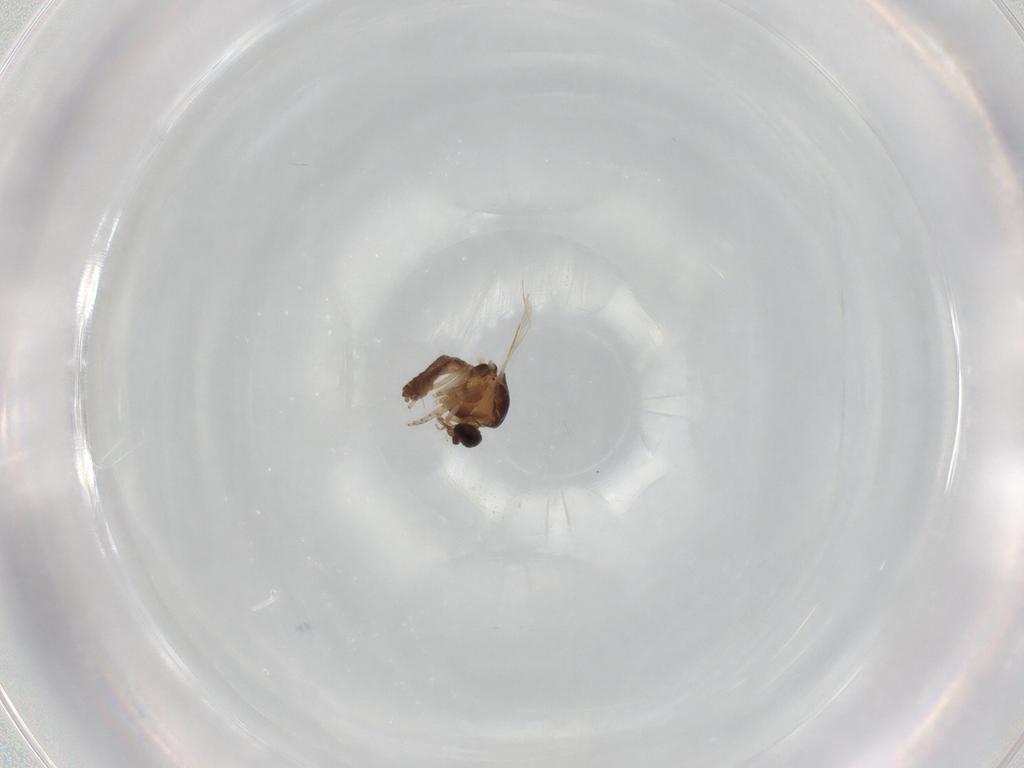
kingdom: Animalia
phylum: Arthropoda
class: Insecta
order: Diptera
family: Ceratopogonidae
